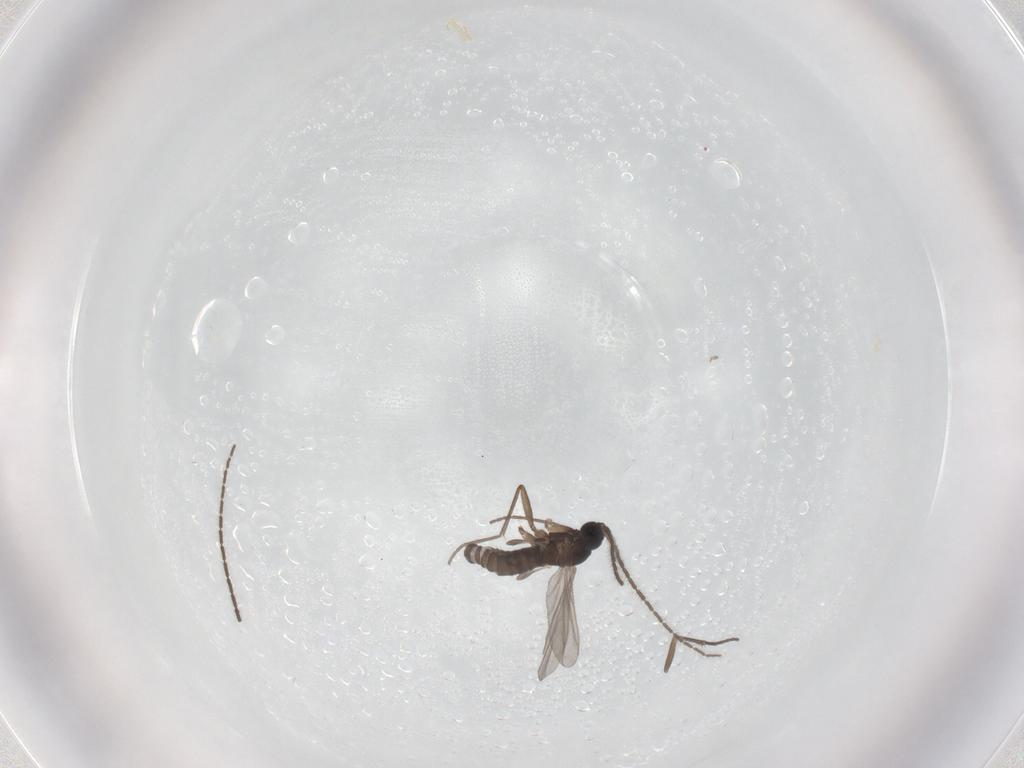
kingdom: Animalia
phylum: Arthropoda
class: Insecta
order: Diptera
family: Sciaridae
